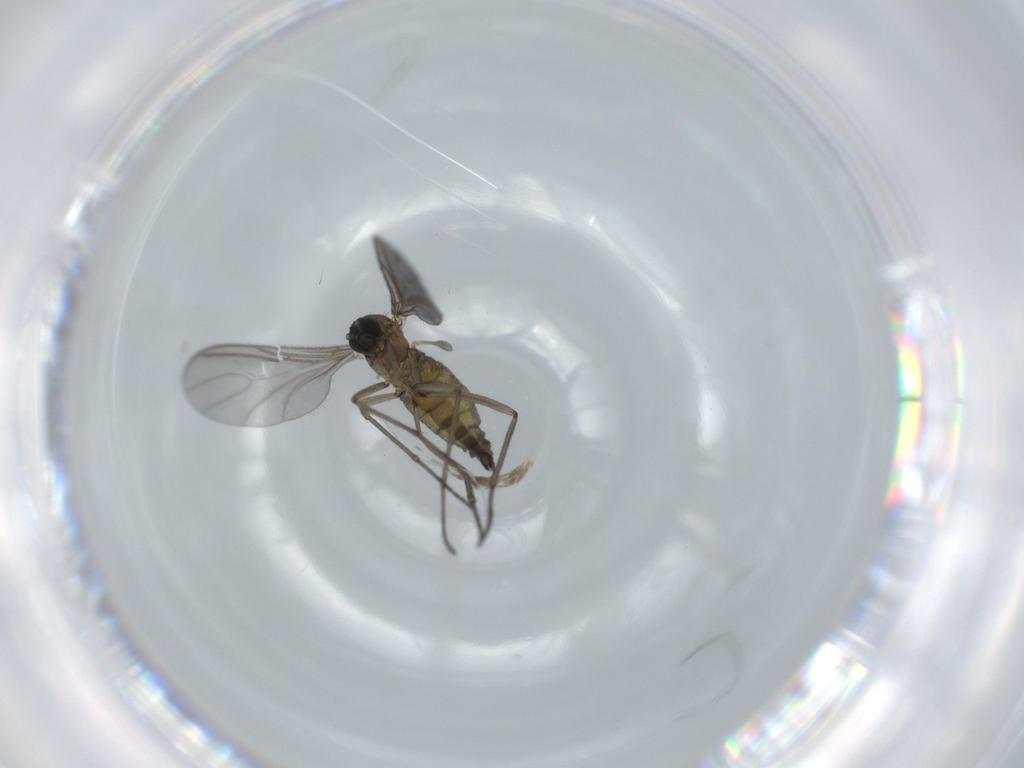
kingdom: Animalia
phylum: Arthropoda
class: Insecta
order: Diptera
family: Sciaridae
